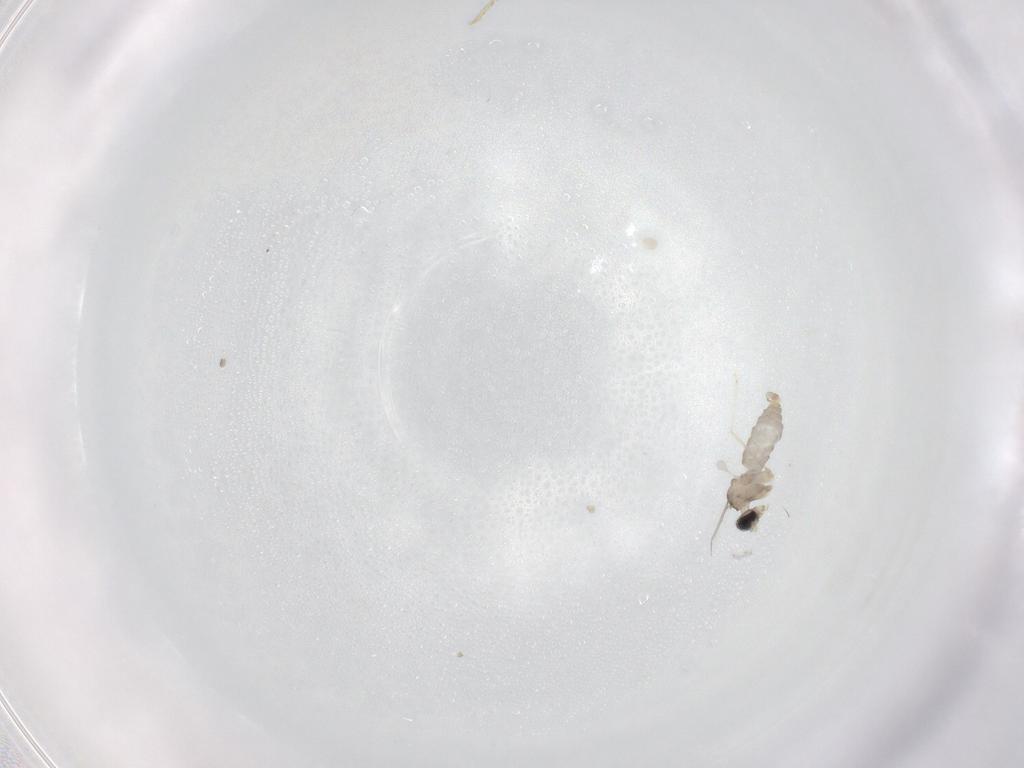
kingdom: Animalia
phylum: Arthropoda
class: Insecta
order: Diptera
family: Cecidomyiidae
